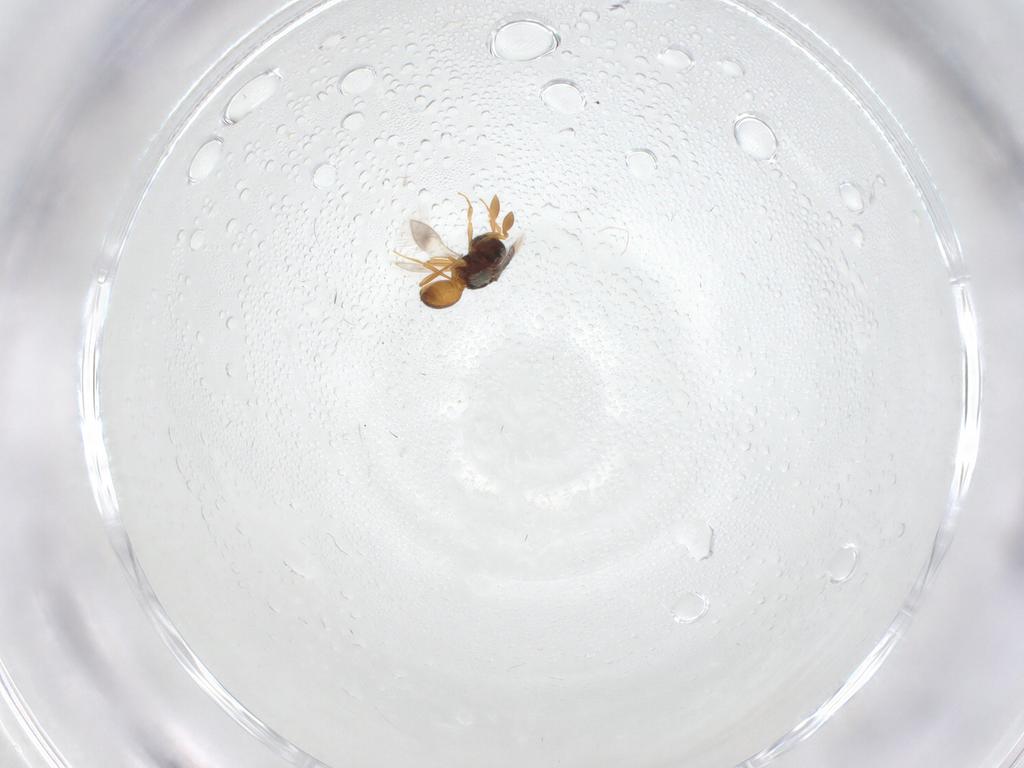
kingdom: Animalia
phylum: Arthropoda
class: Insecta
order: Hymenoptera
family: Scelionidae
